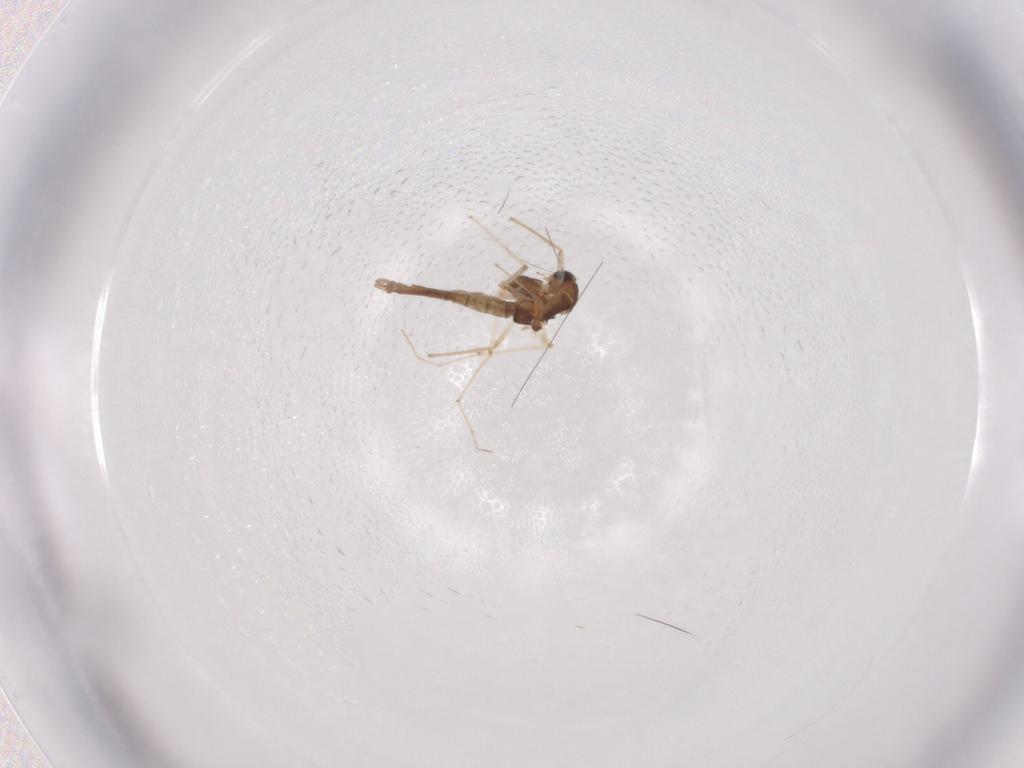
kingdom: Animalia
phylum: Arthropoda
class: Insecta
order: Diptera
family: Chironomidae
